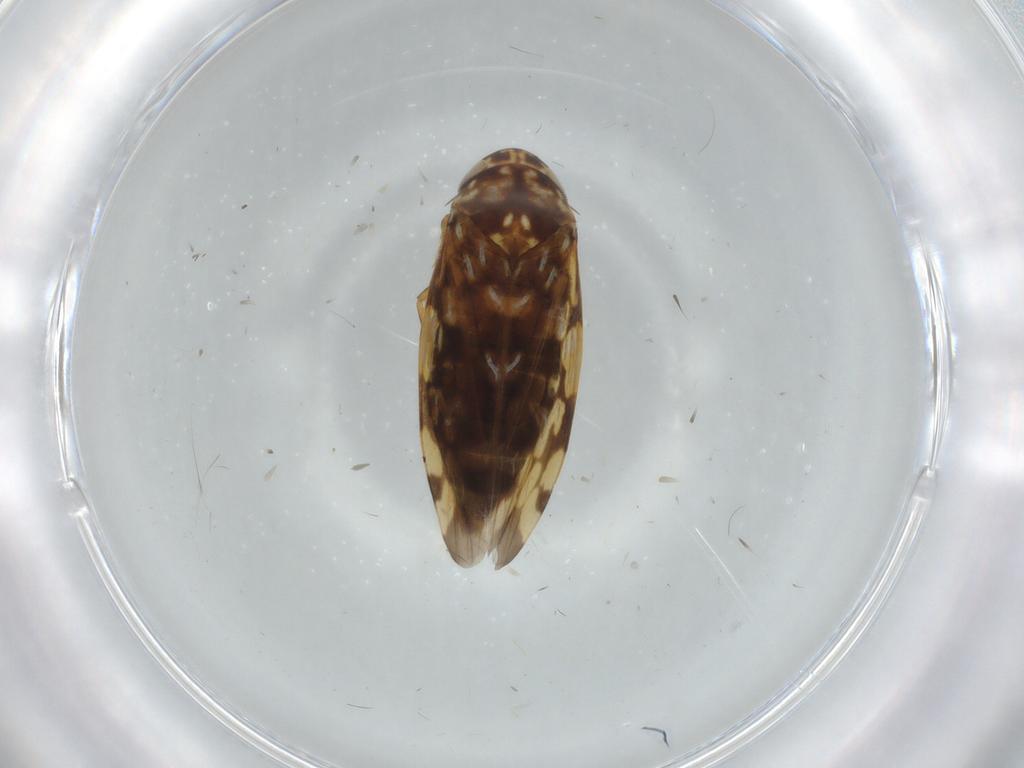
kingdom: Animalia
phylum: Arthropoda
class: Insecta
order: Hemiptera
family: Cicadellidae
